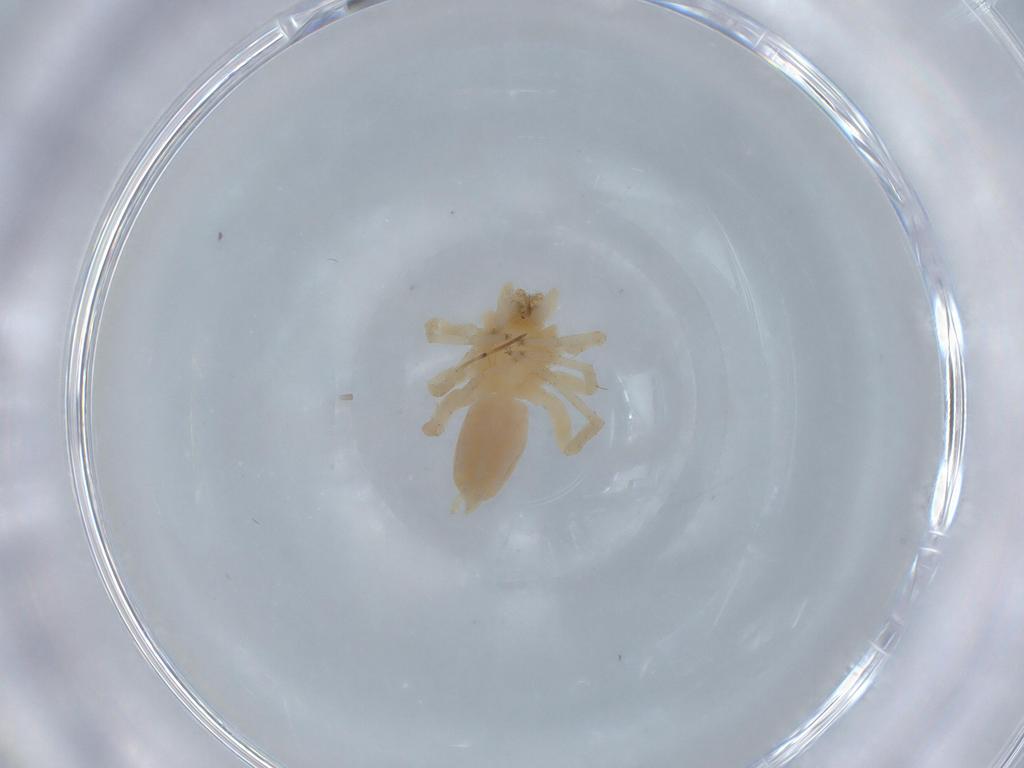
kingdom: Animalia
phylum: Arthropoda
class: Arachnida
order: Araneae
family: Anyphaenidae
